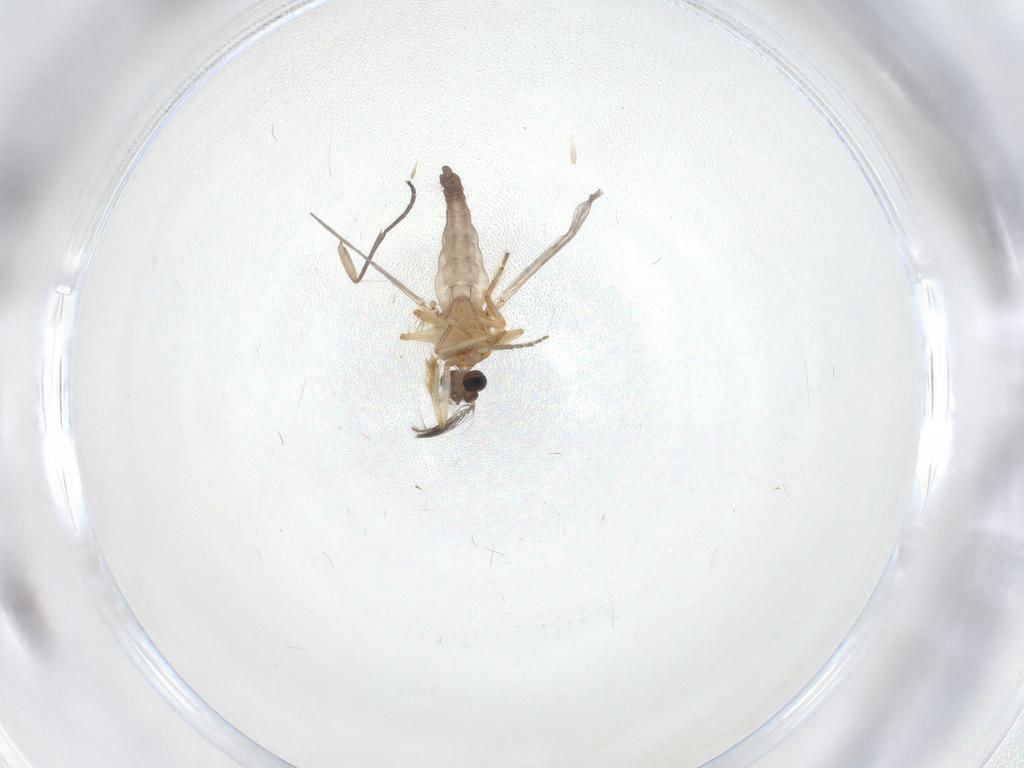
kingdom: Animalia
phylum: Arthropoda
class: Insecta
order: Diptera
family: Ceratopogonidae
